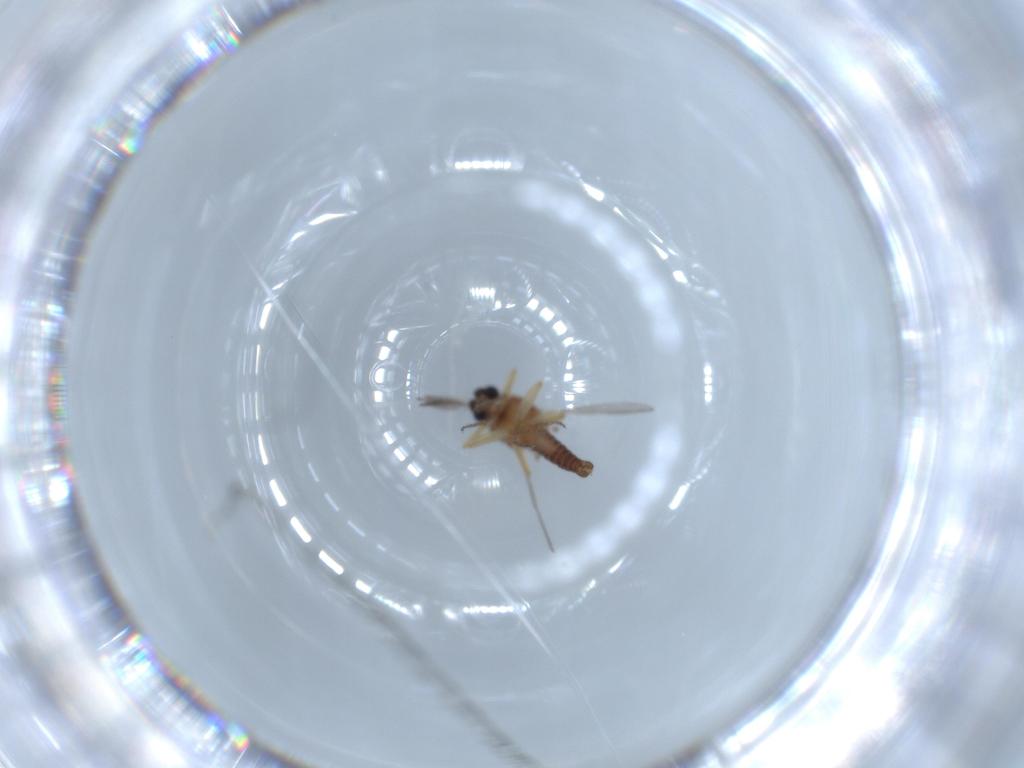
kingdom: Animalia
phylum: Arthropoda
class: Insecta
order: Diptera
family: Ceratopogonidae
